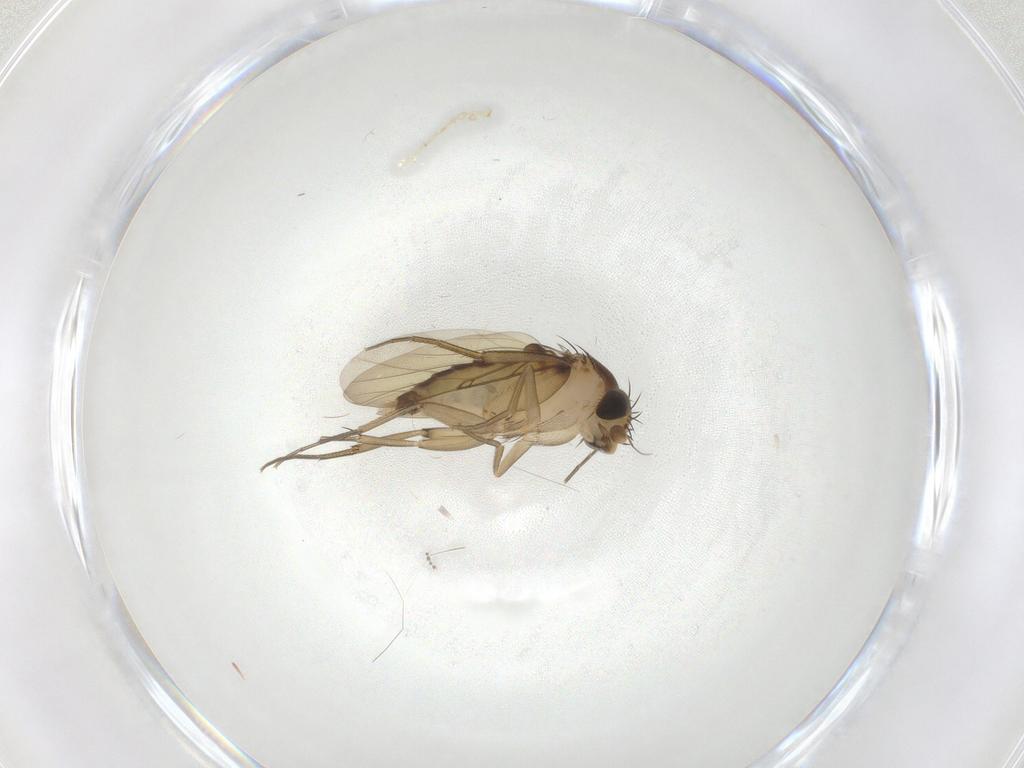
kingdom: Animalia
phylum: Arthropoda
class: Insecta
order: Diptera
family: Phoridae
